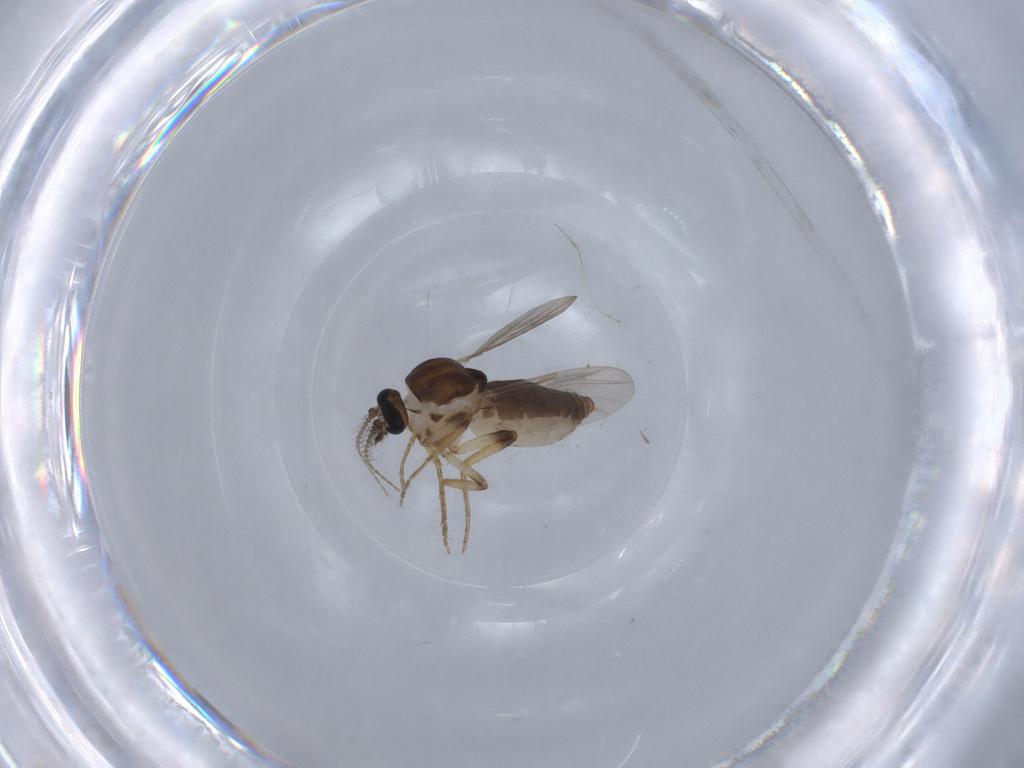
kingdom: Animalia
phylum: Arthropoda
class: Insecta
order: Diptera
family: Ceratopogonidae
